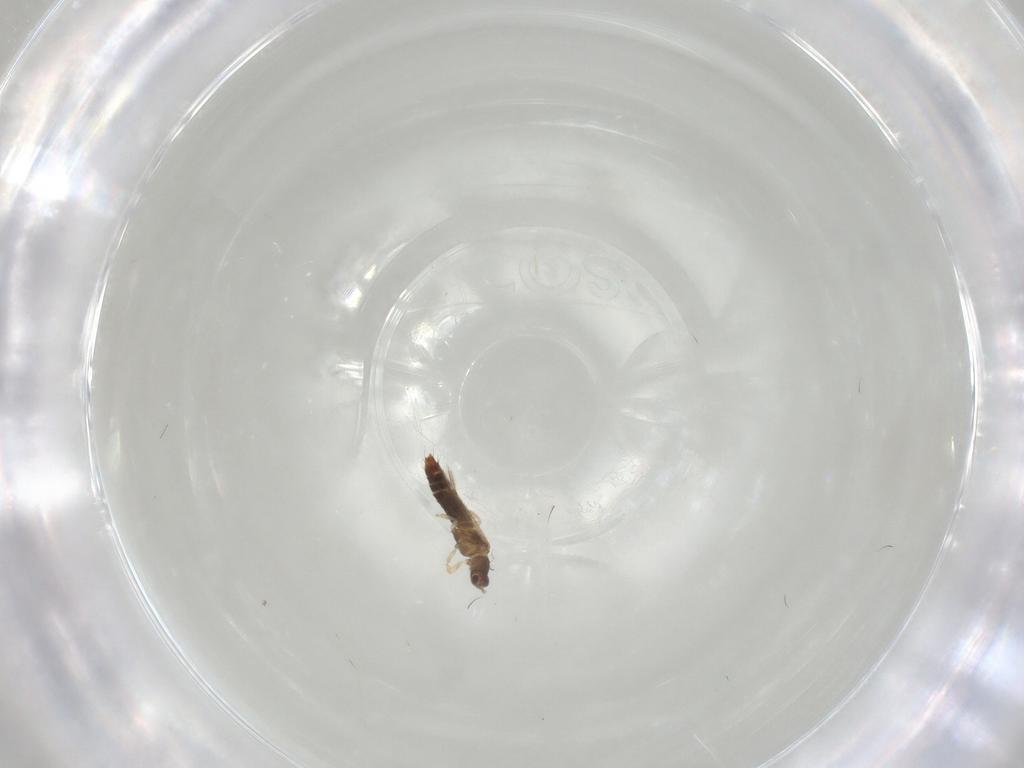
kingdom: Animalia
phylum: Arthropoda
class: Insecta
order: Thysanoptera
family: Thripidae
